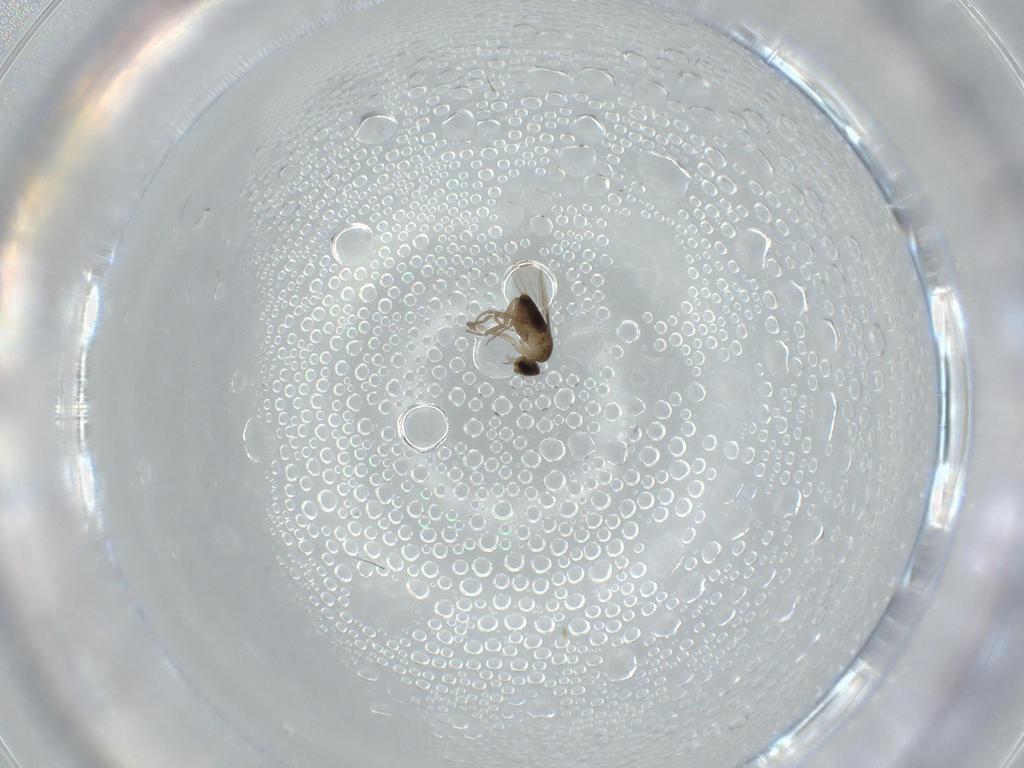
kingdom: Animalia
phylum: Arthropoda
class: Insecta
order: Diptera
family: Phoridae
